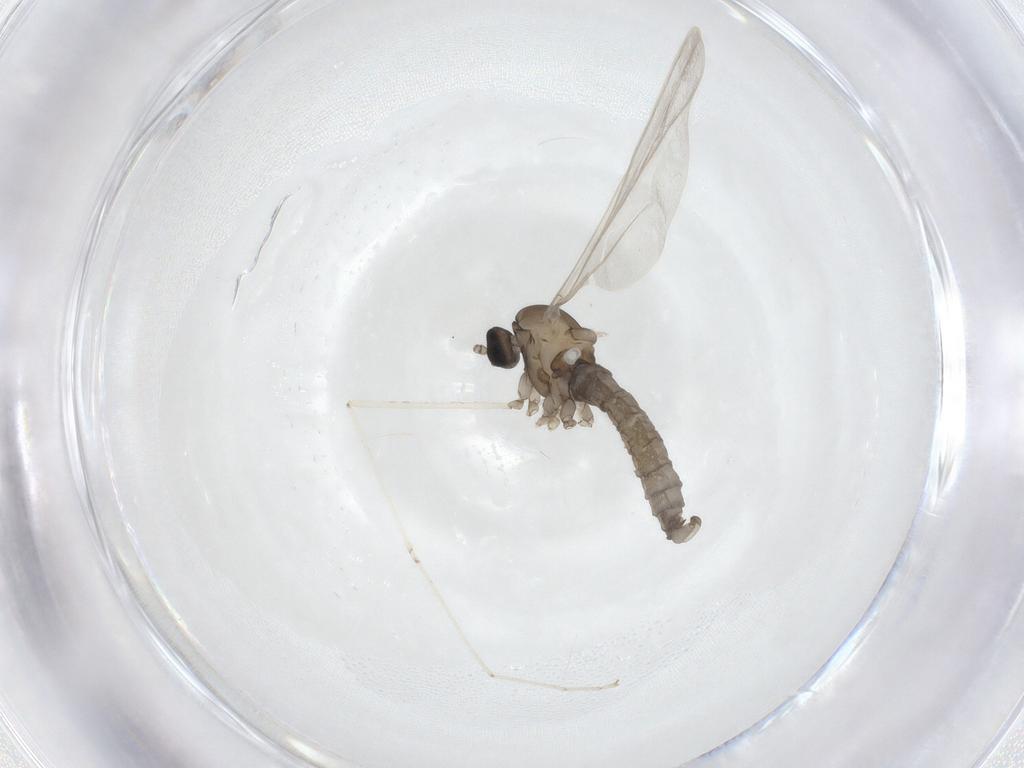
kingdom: Animalia
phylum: Arthropoda
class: Insecta
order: Diptera
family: Cecidomyiidae
